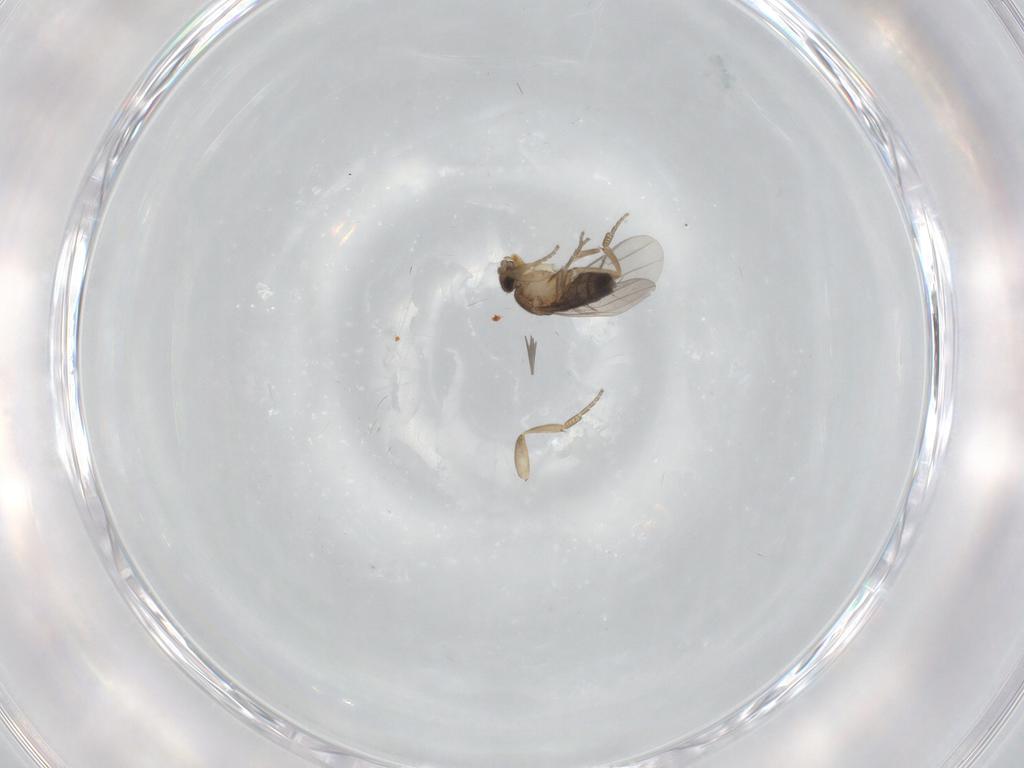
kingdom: Animalia
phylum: Arthropoda
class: Insecta
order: Diptera
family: Phoridae
